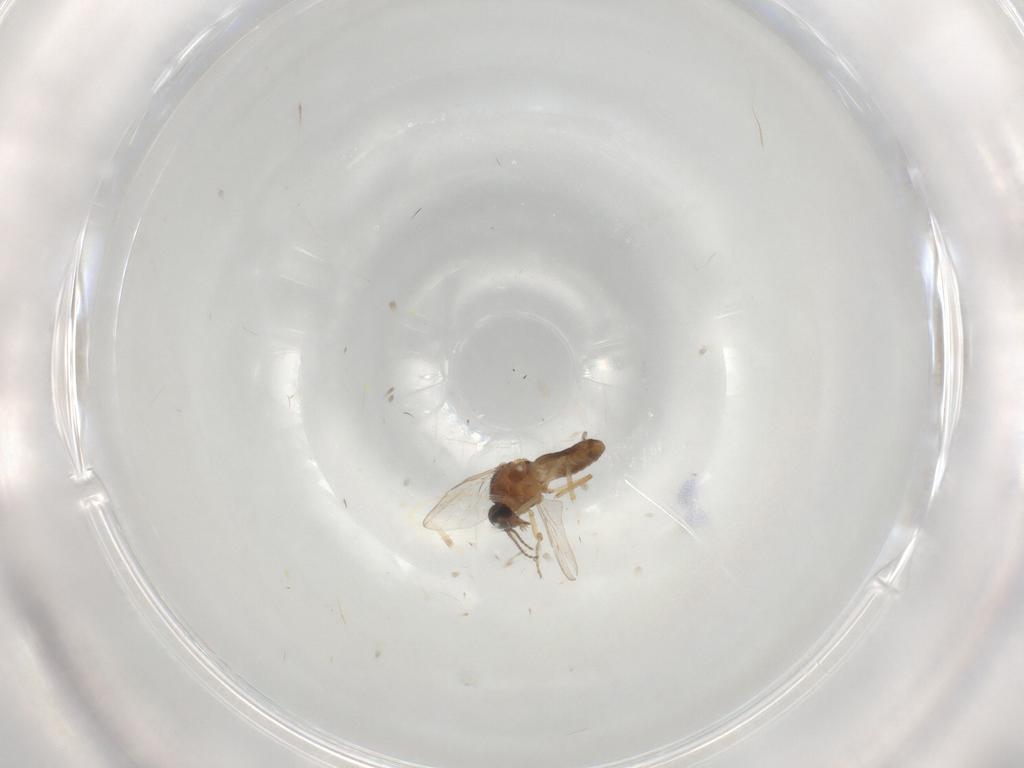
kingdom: Animalia
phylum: Arthropoda
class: Insecta
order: Diptera
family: Ceratopogonidae
